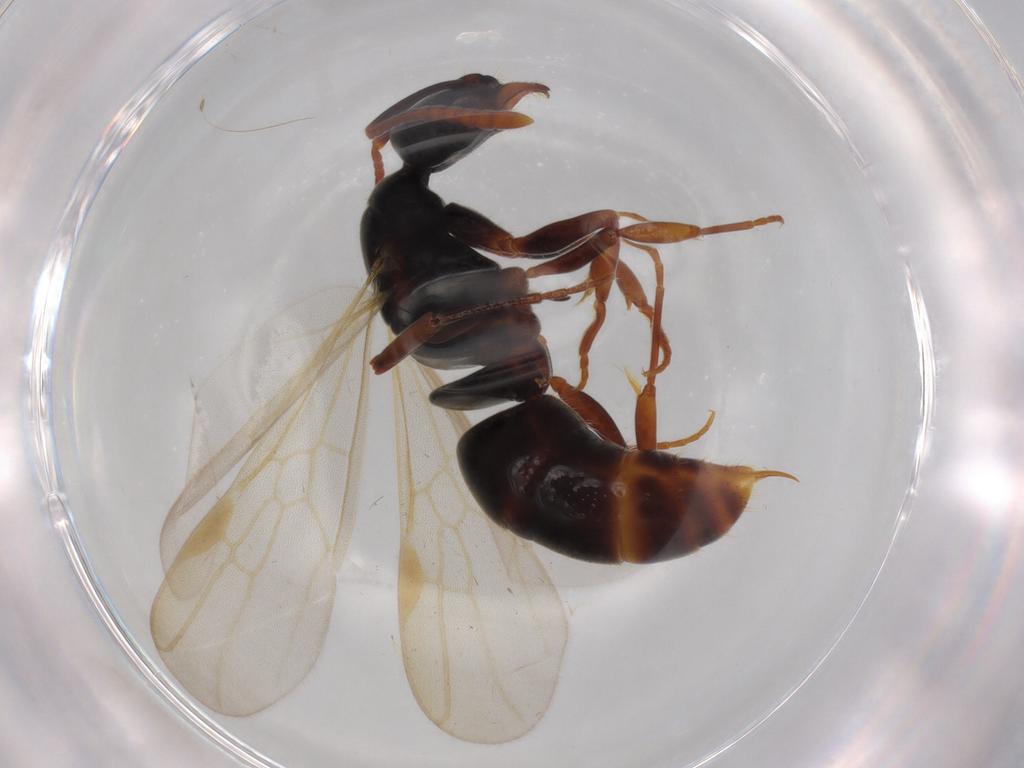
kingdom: Animalia
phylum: Arthropoda
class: Insecta
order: Hymenoptera
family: Formicidae
